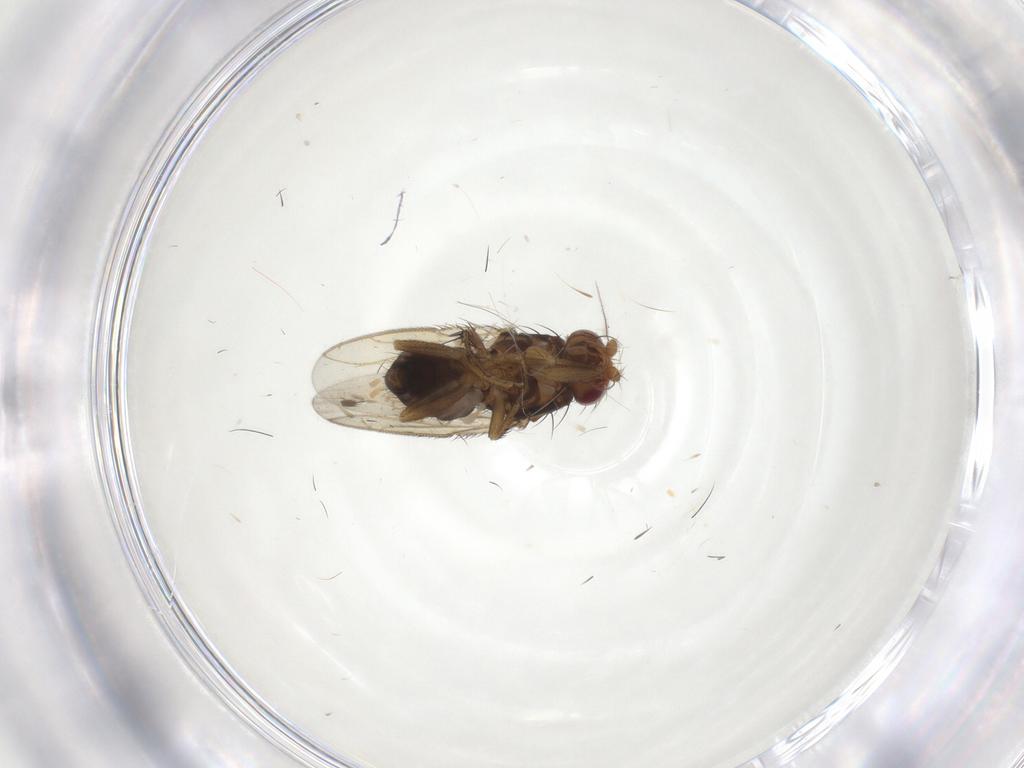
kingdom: Animalia
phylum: Arthropoda
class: Insecta
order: Diptera
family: Sphaeroceridae
